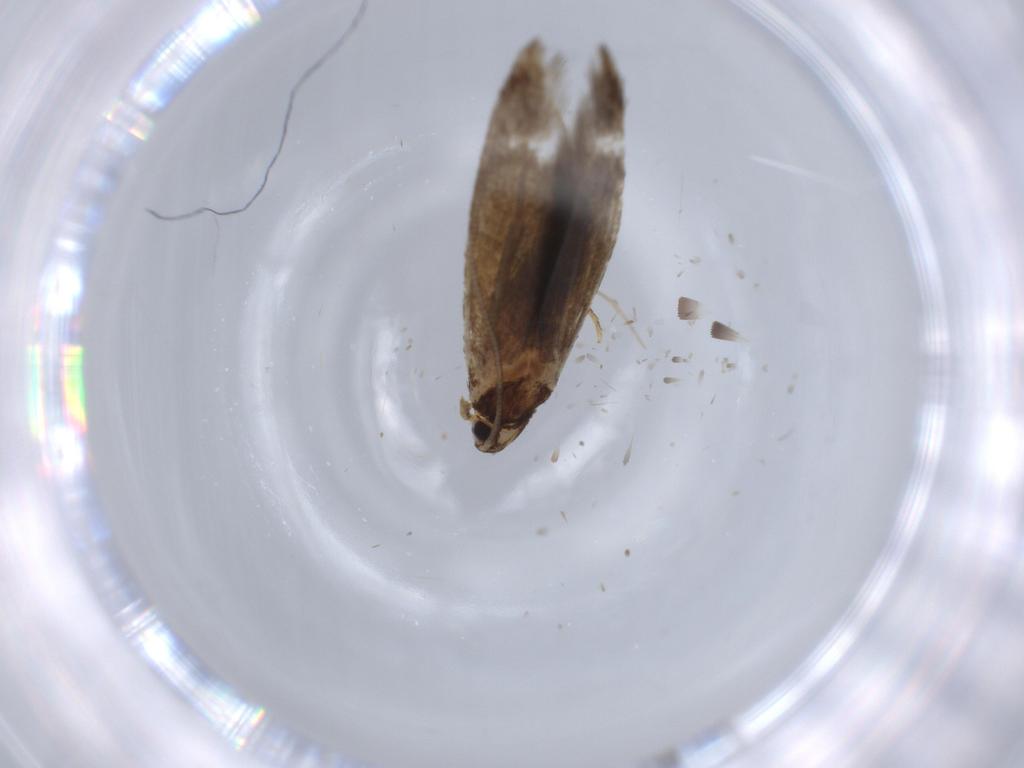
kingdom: Animalia
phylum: Arthropoda
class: Insecta
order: Lepidoptera
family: Tineidae
